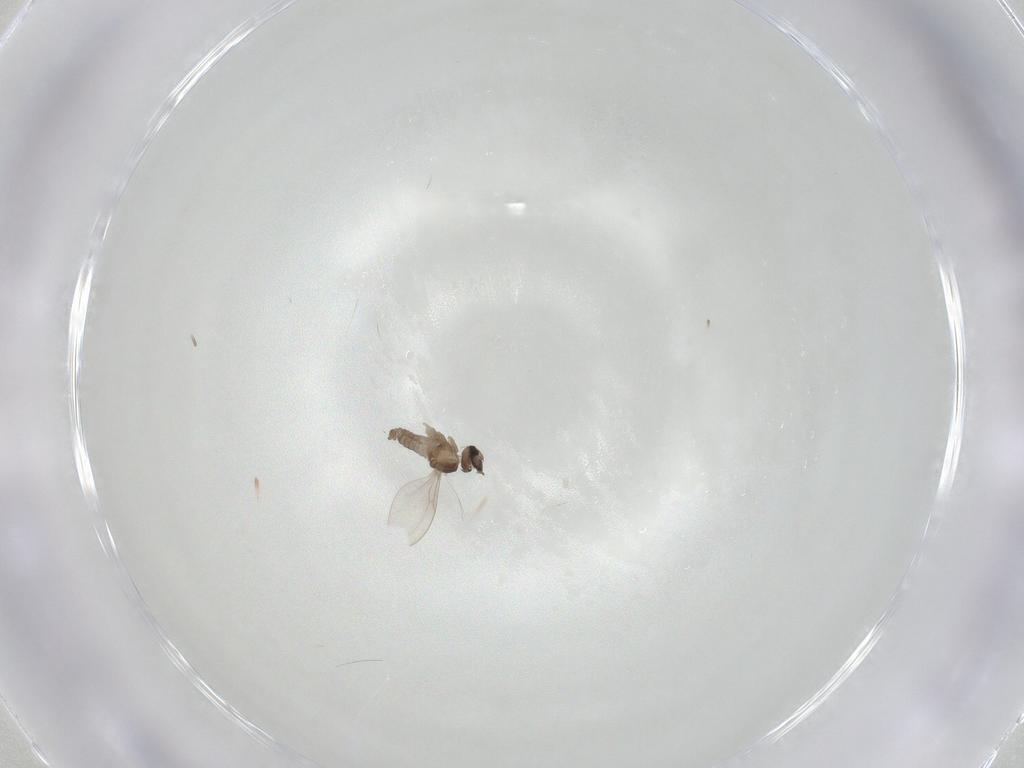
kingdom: Animalia
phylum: Arthropoda
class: Insecta
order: Diptera
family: Cecidomyiidae
